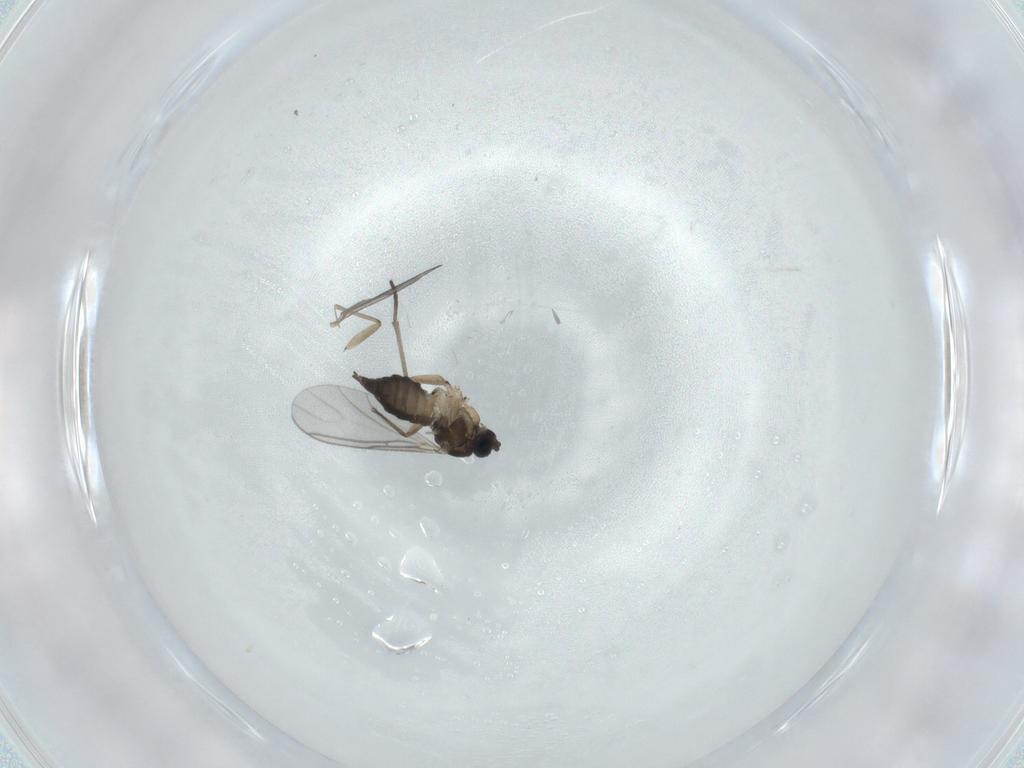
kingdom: Animalia
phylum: Arthropoda
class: Insecta
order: Diptera
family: Sciaridae
